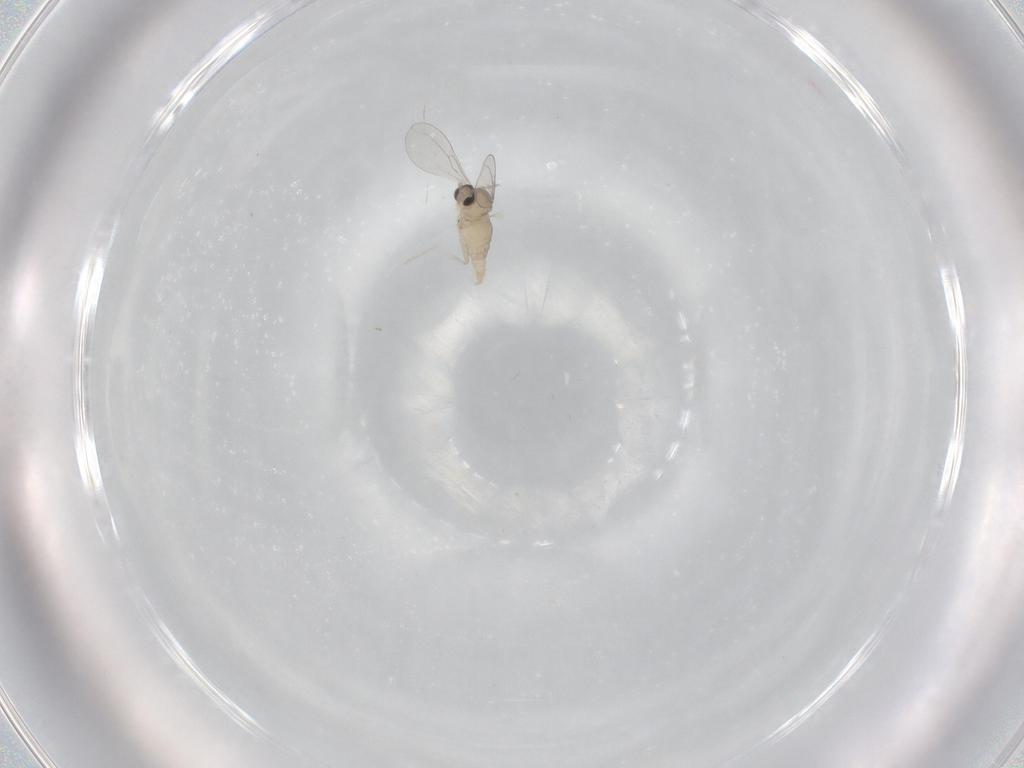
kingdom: Animalia
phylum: Arthropoda
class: Insecta
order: Diptera
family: Cecidomyiidae
